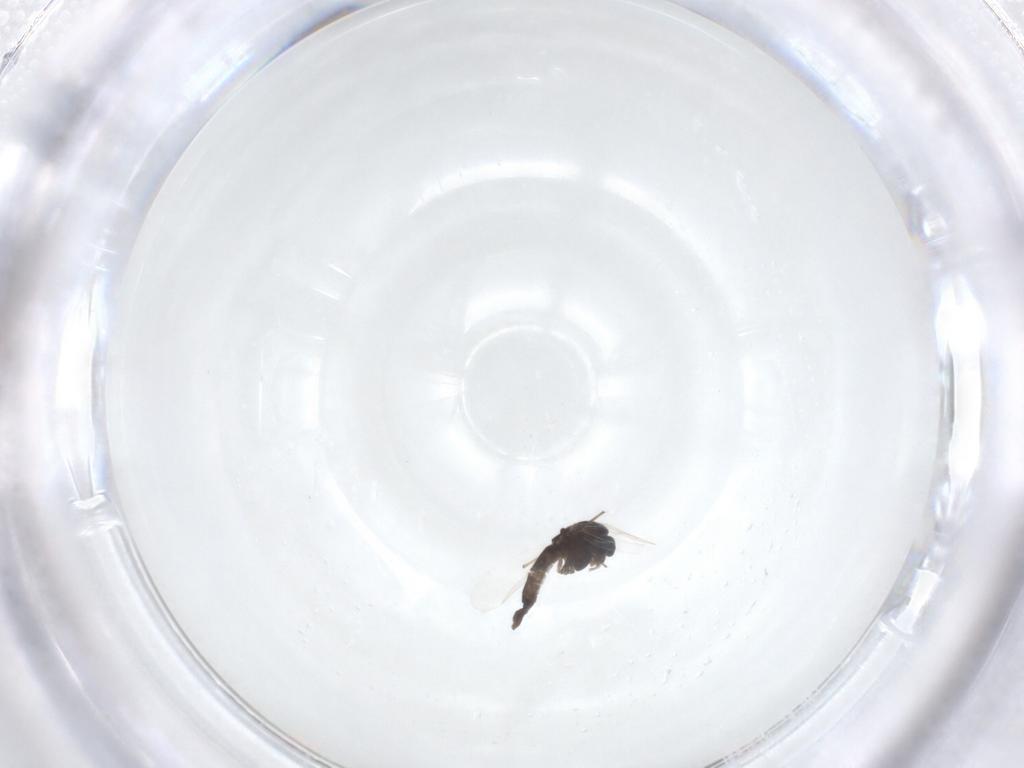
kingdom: Animalia
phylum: Arthropoda
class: Insecta
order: Diptera
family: Chironomidae
